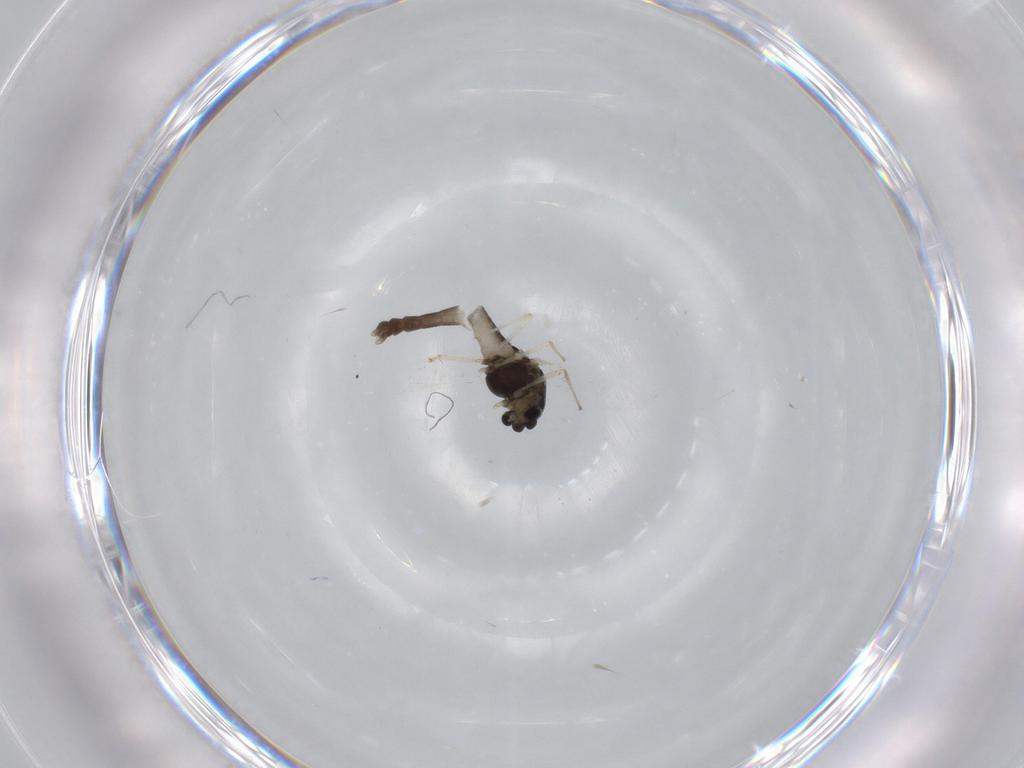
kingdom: Animalia
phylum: Arthropoda
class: Insecta
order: Diptera
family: Chironomidae
